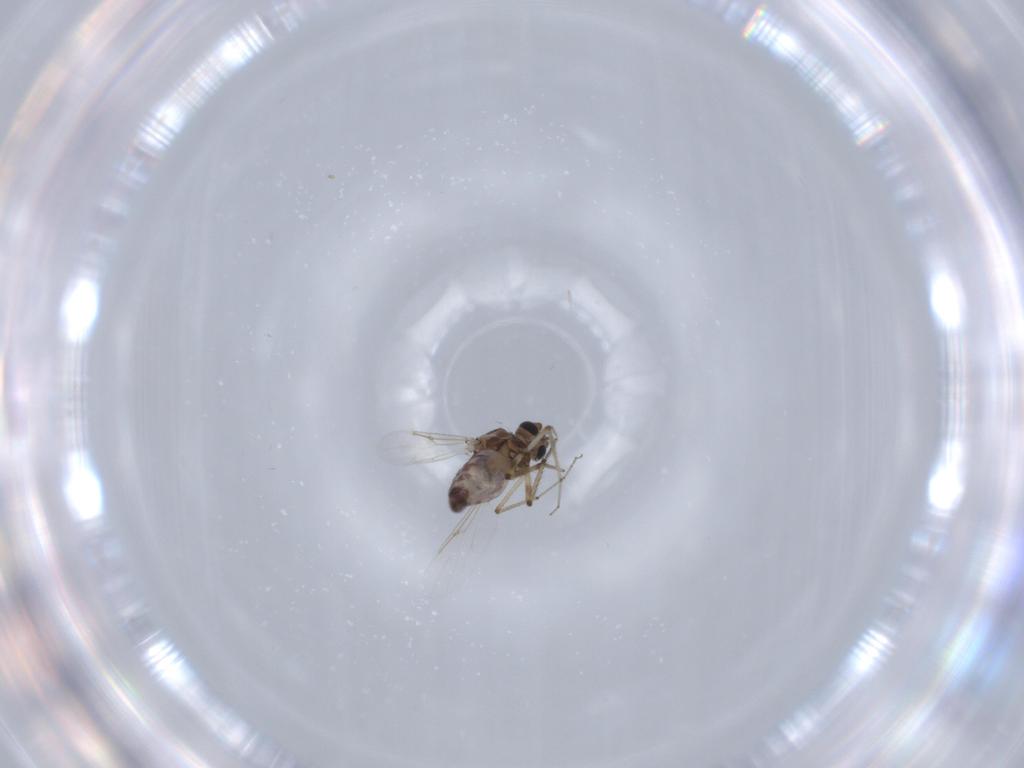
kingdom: Animalia
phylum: Arthropoda
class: Insecta
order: Diptera
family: Ceratopogonidae
